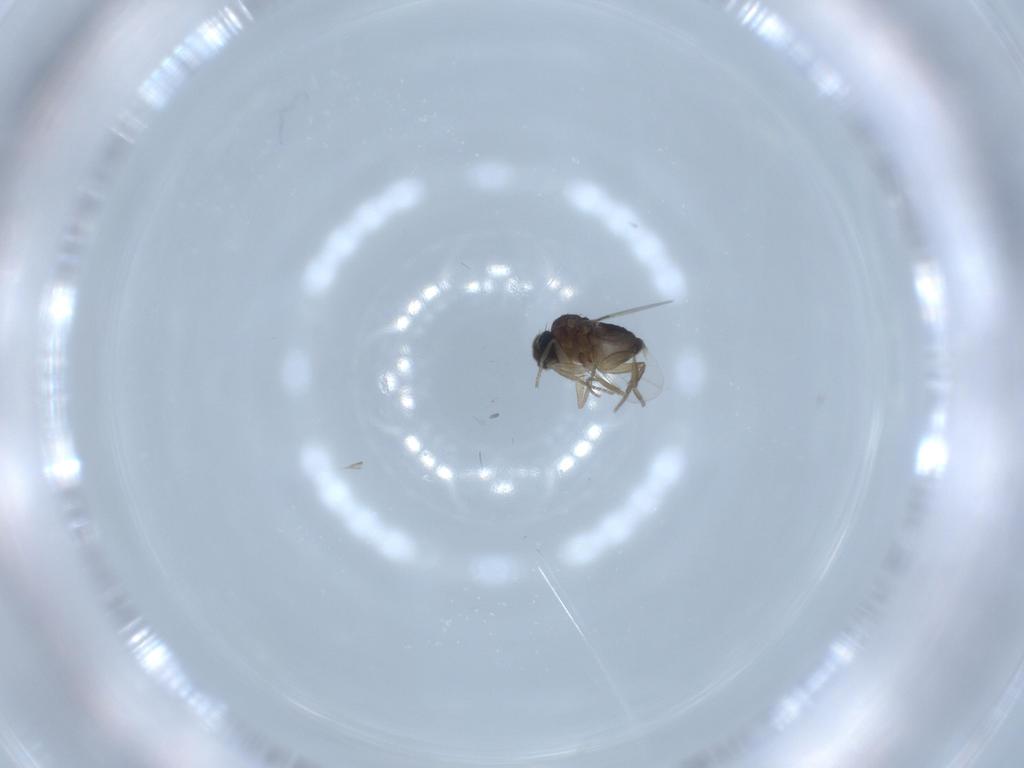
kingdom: Animalia
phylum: Arthropoda
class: Insecta
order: Diptera
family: Phoridae
